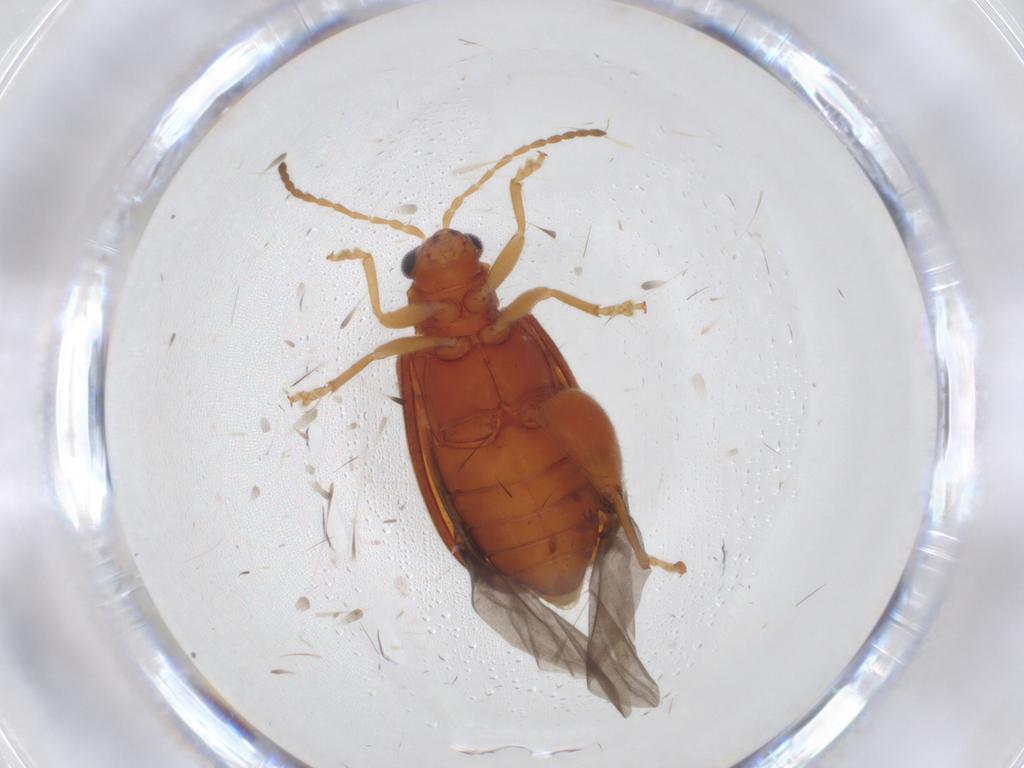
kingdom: Animalia
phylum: Arthropoda
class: Insecta
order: Coleoptera
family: Chrysomelidae
